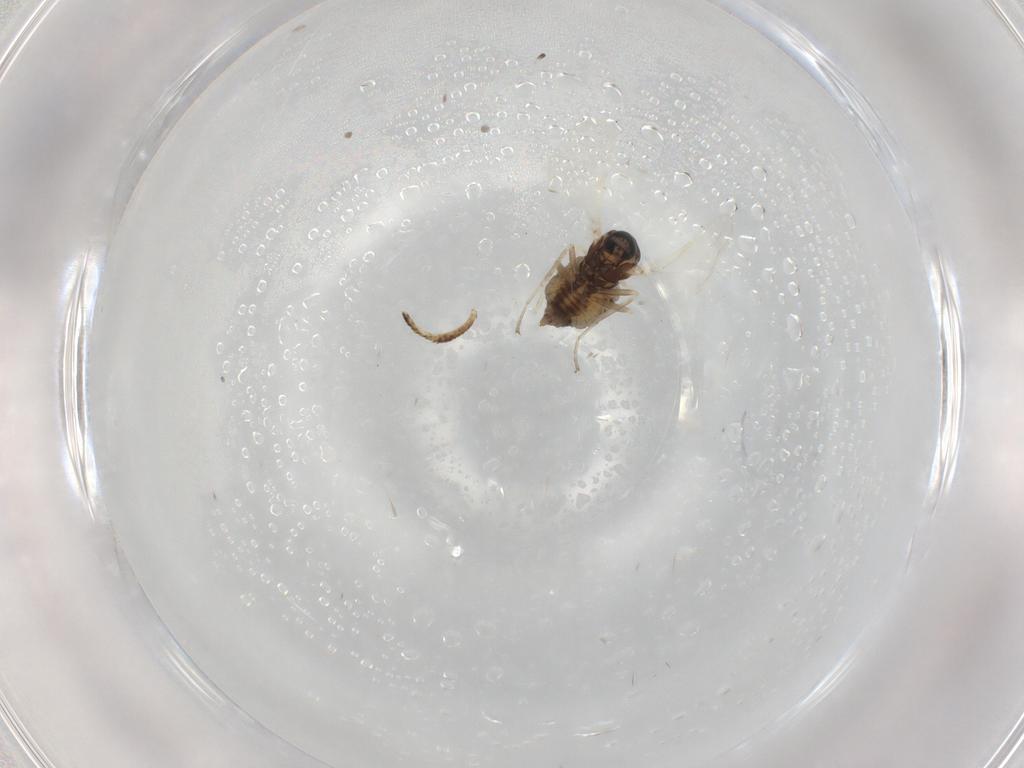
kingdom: Animalia
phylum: Arthropoda
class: Insecta
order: Diptera
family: Cecidomyiidae
